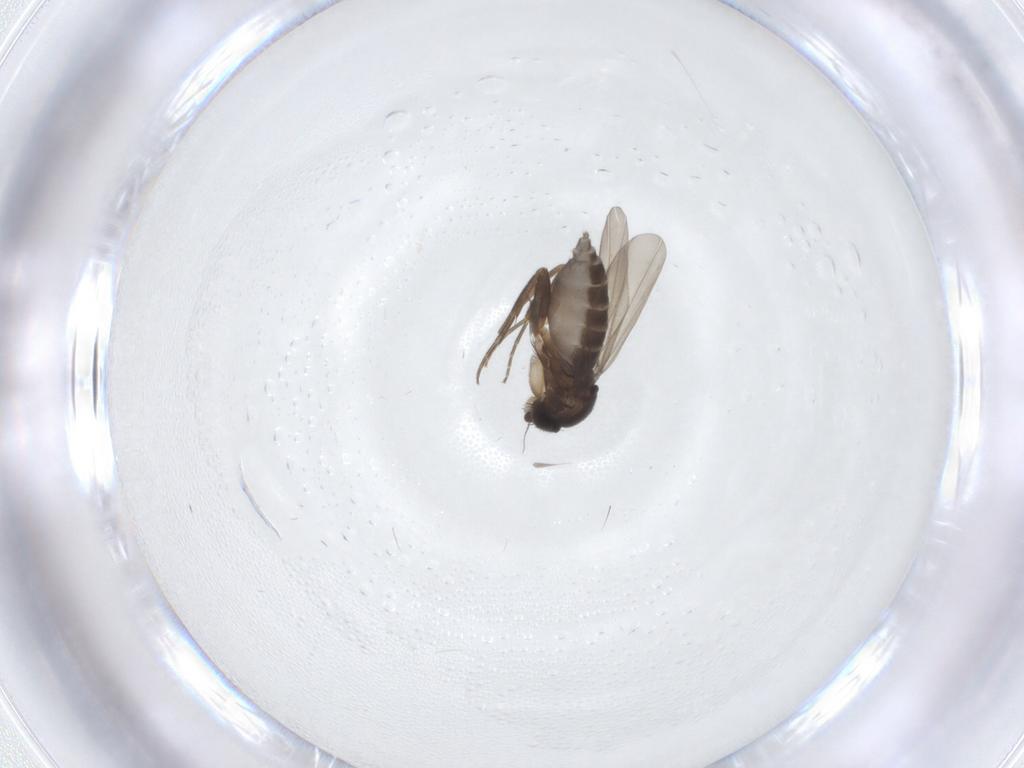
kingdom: Animalia
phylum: Arthropoda
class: Insecta
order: Diptera
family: Phoridae
